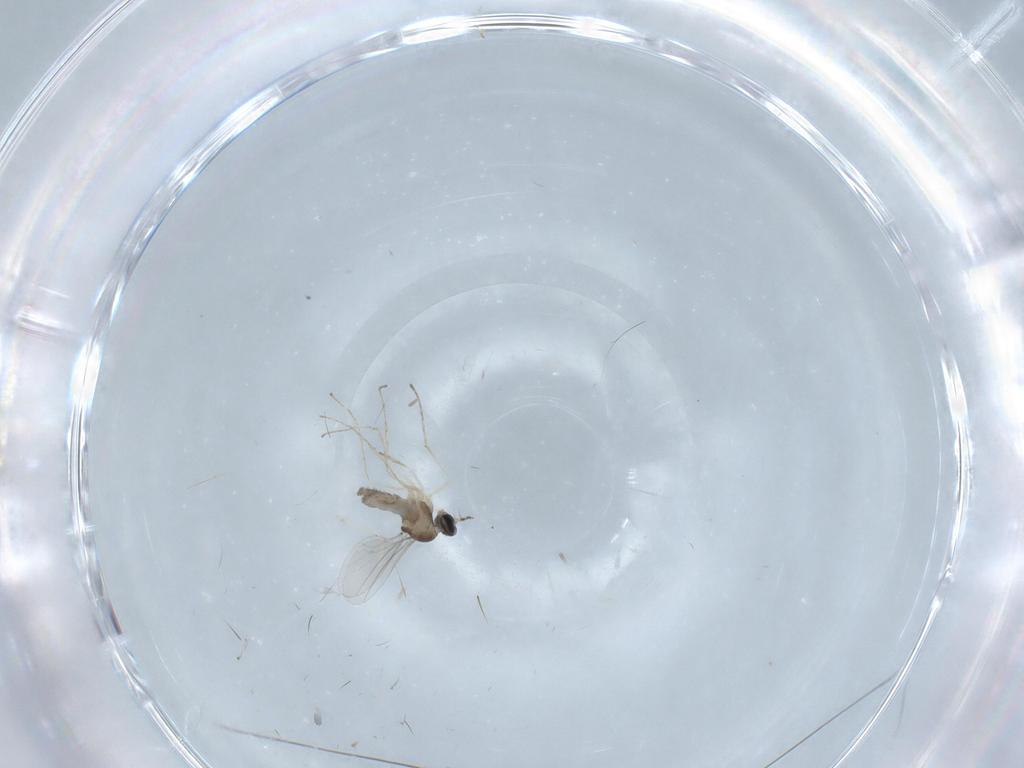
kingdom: Animalia
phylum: Arthropoda
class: Insecta
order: Diptera
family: Cecidomyiidae
